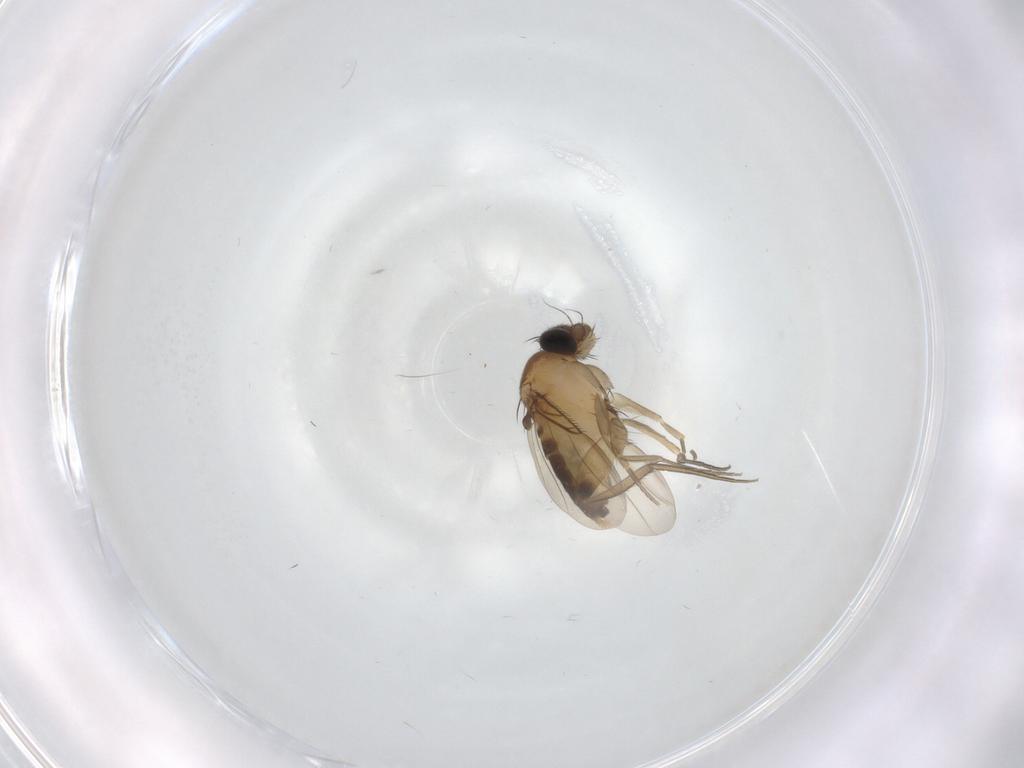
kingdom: Animalia
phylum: Arthropoda
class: Insecta
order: Diptera
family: Phoridae
